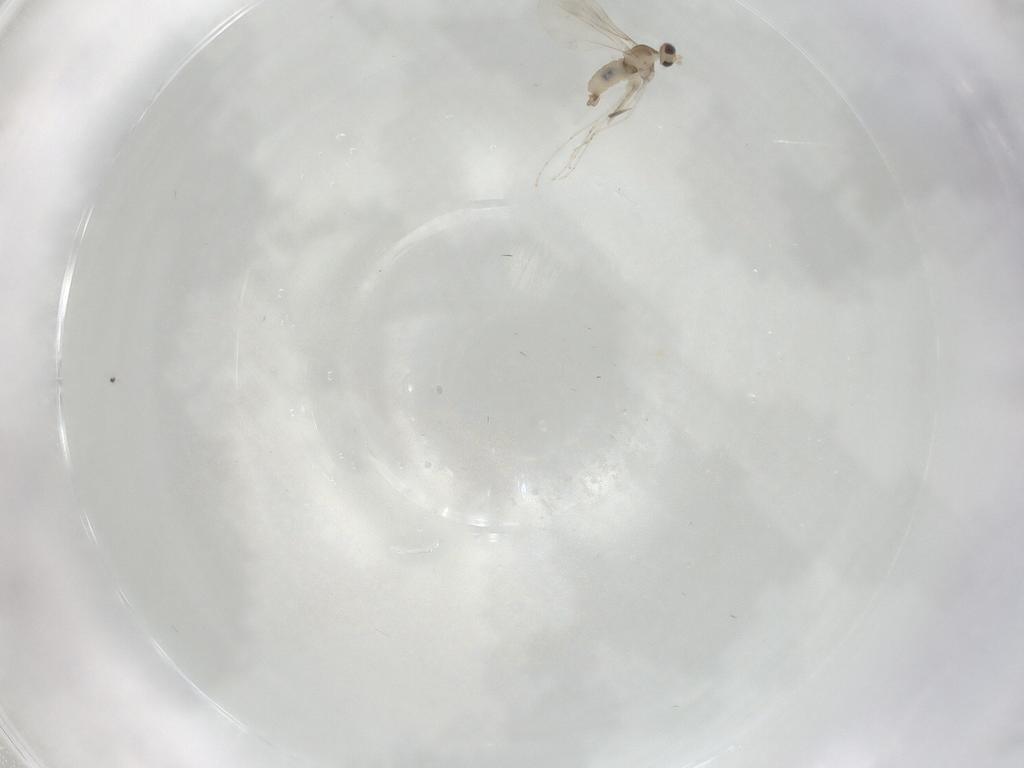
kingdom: Animalia
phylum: Arthropoda
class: Insecta
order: Diptera
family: Cecidomyiidae
